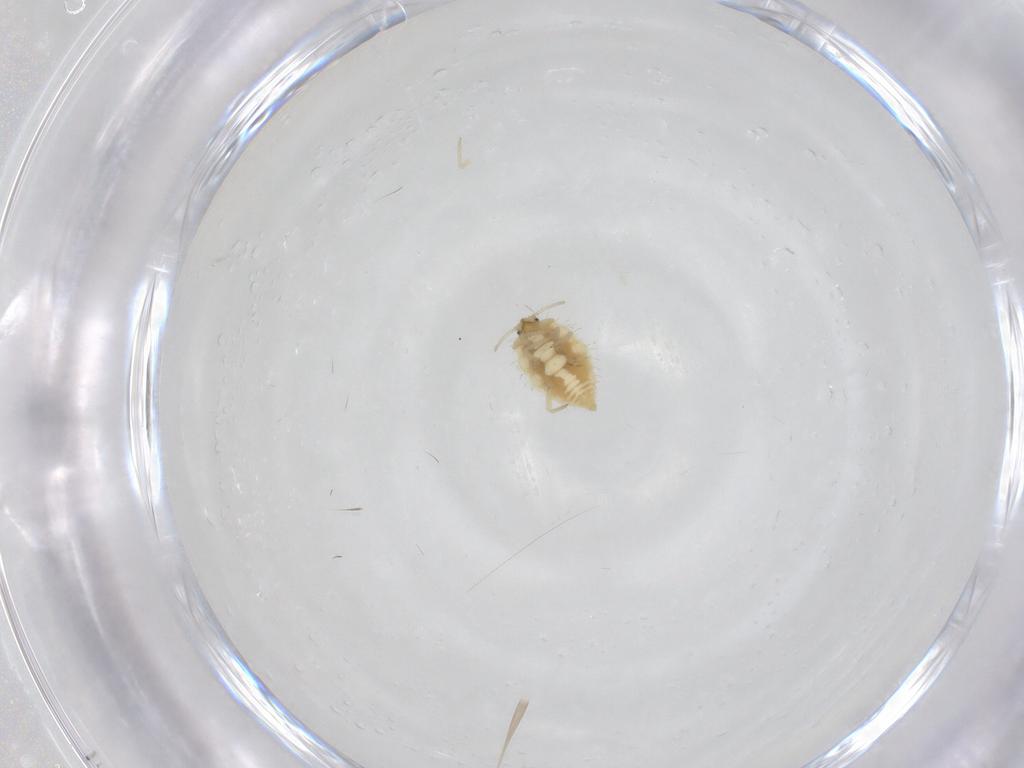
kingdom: Animalia
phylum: Arthropoda
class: Insecta
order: Neuroptera
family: Coniopterygidae
